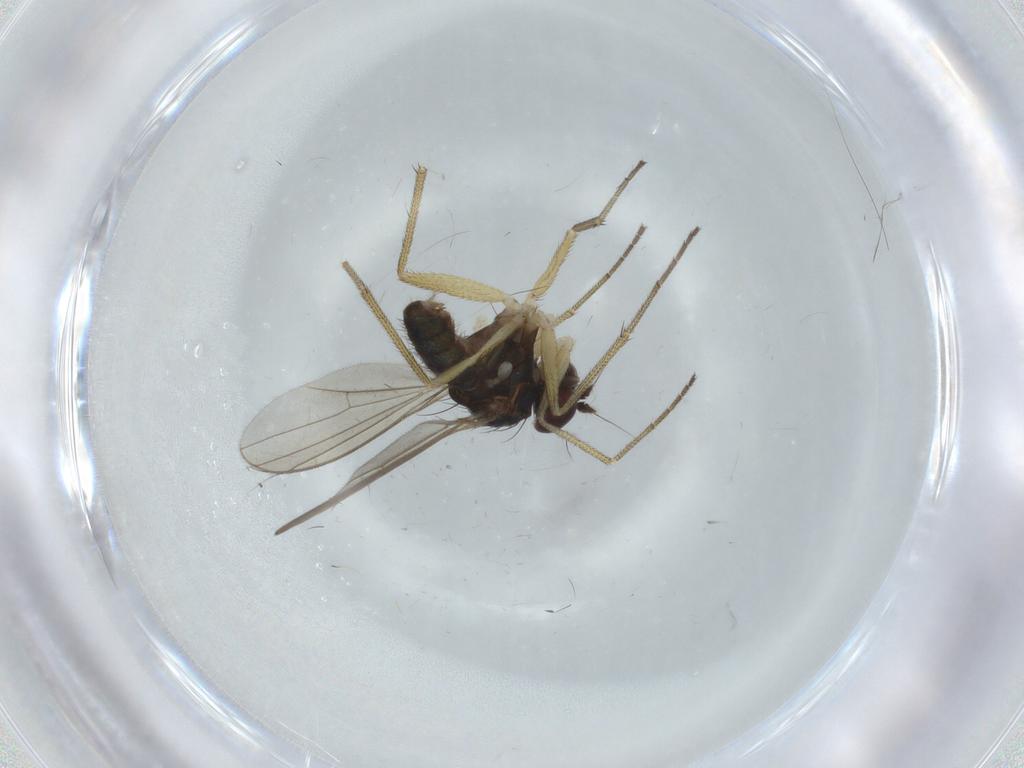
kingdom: Animalia
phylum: Arthropoda
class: Insecta
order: Diptera
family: Dolichopodidae
